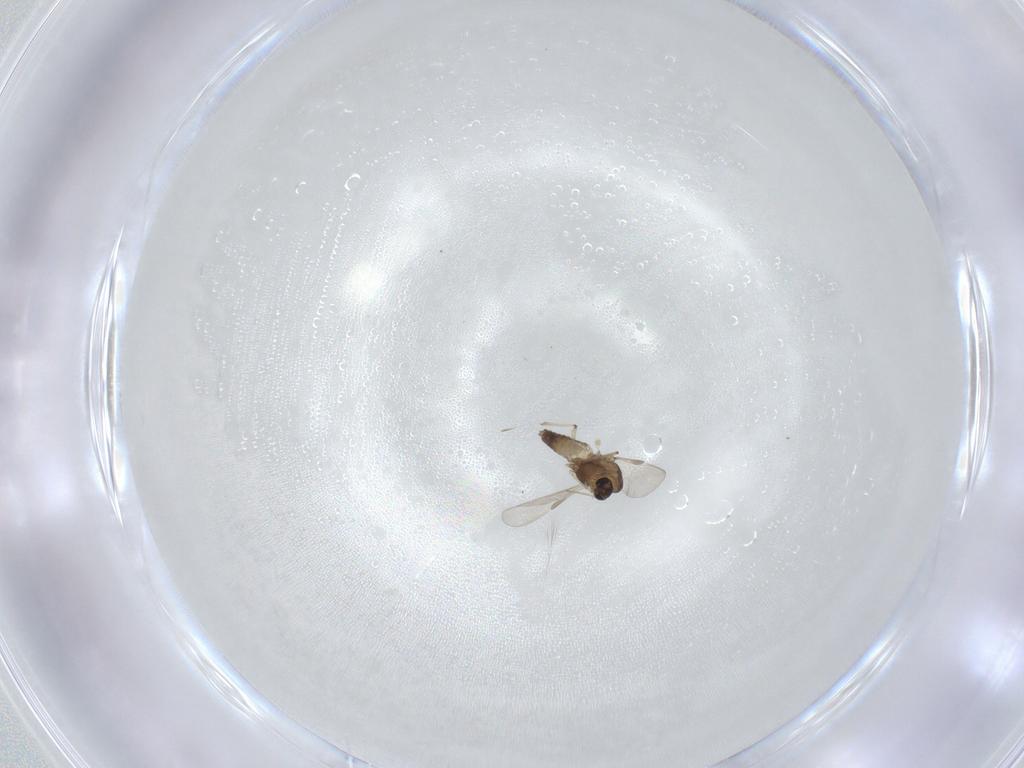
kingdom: Animalia
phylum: Arthropoda
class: Insecta
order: Diptera
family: Chironomidae
